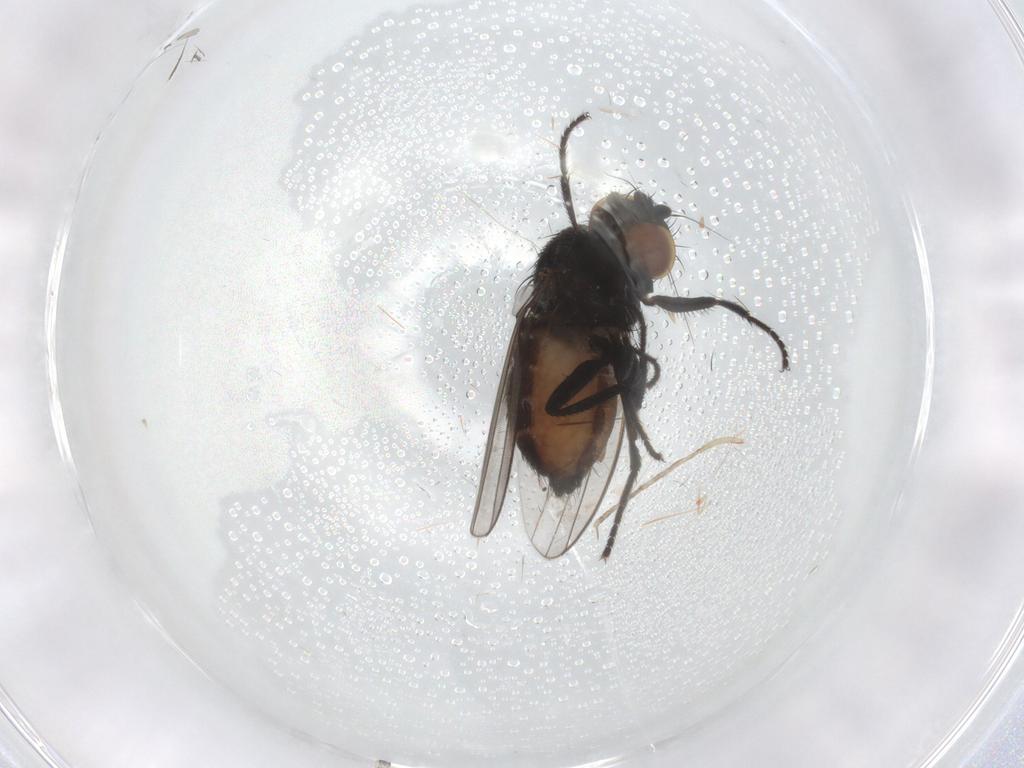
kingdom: Animalia
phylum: Arthropoda
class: Insecta
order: Diptera
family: Milichiidae
